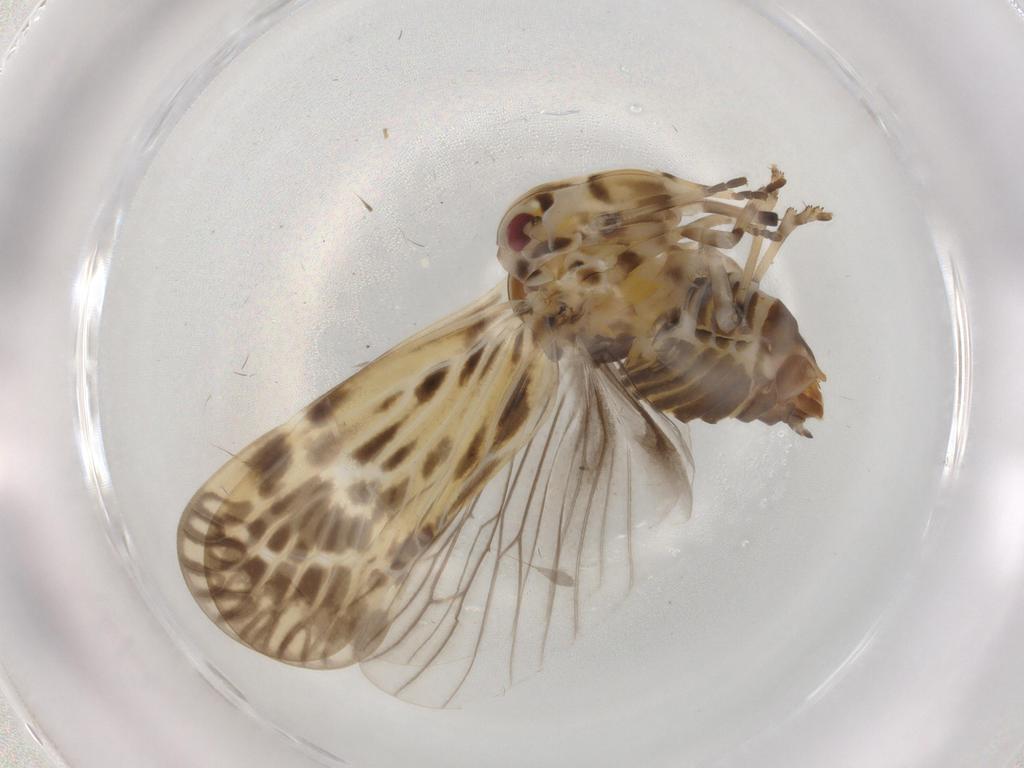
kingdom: Animalia
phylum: Arthropoda
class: Insecta
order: Hemiptera
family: Derbidae
